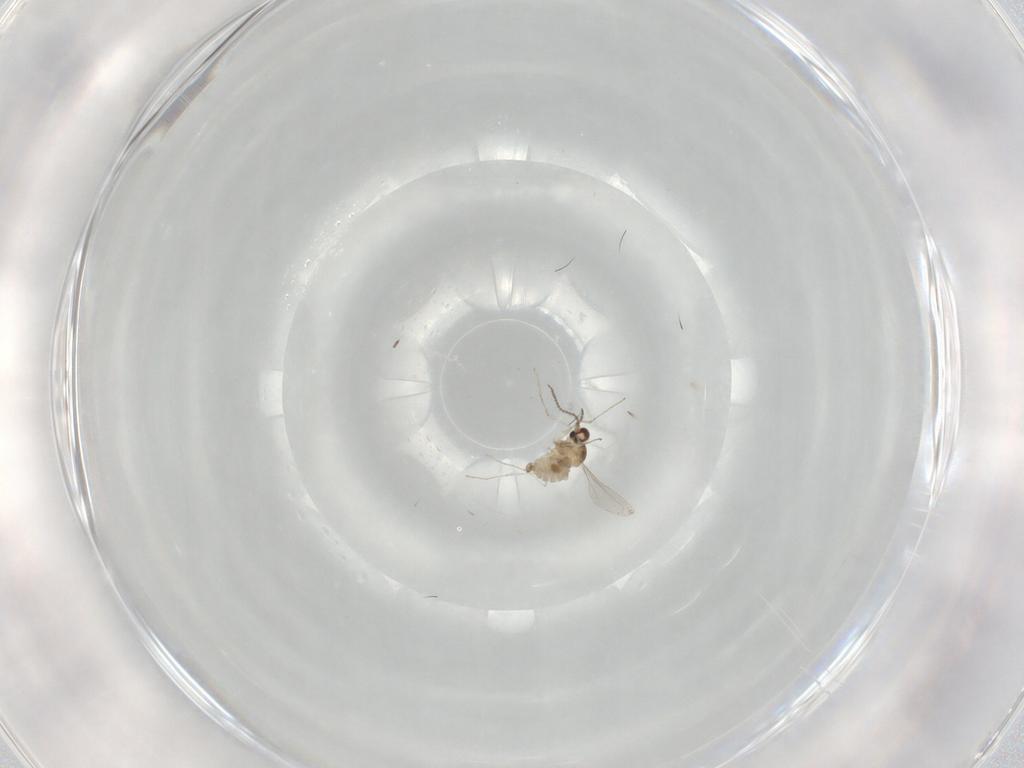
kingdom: Animalia
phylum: Arthropoda
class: Insecta
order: Diptera
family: Tabanidae
